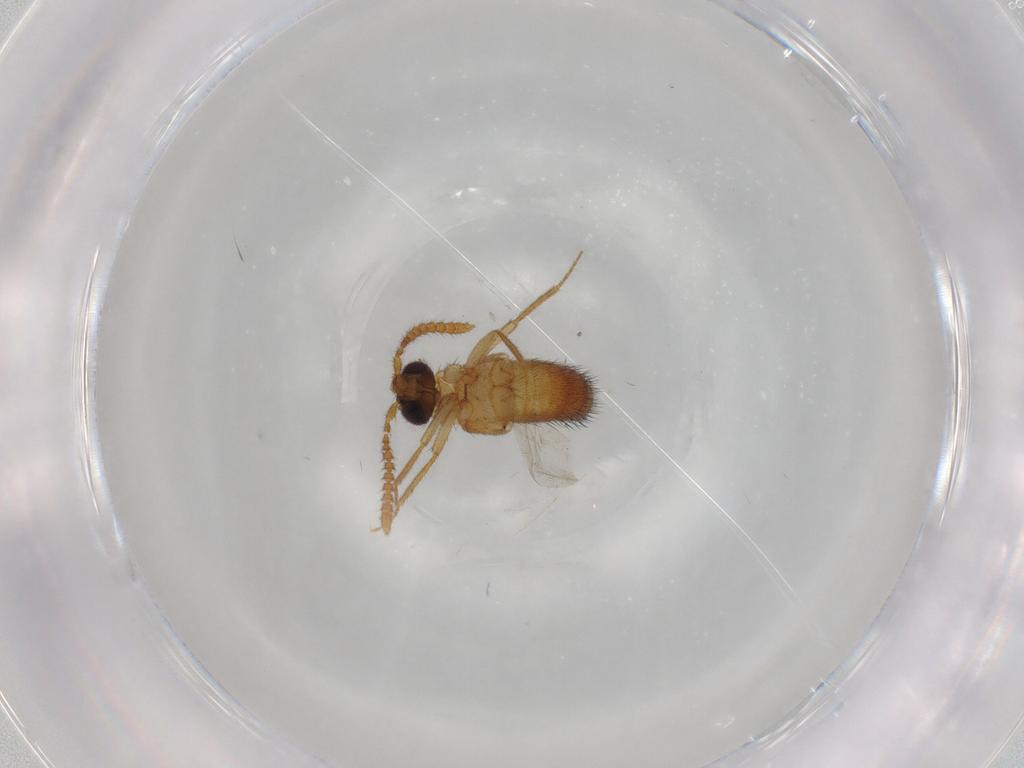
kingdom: Animalia
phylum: Arthropoda
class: Insecta
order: Coleoptera
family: Staphylinidae
